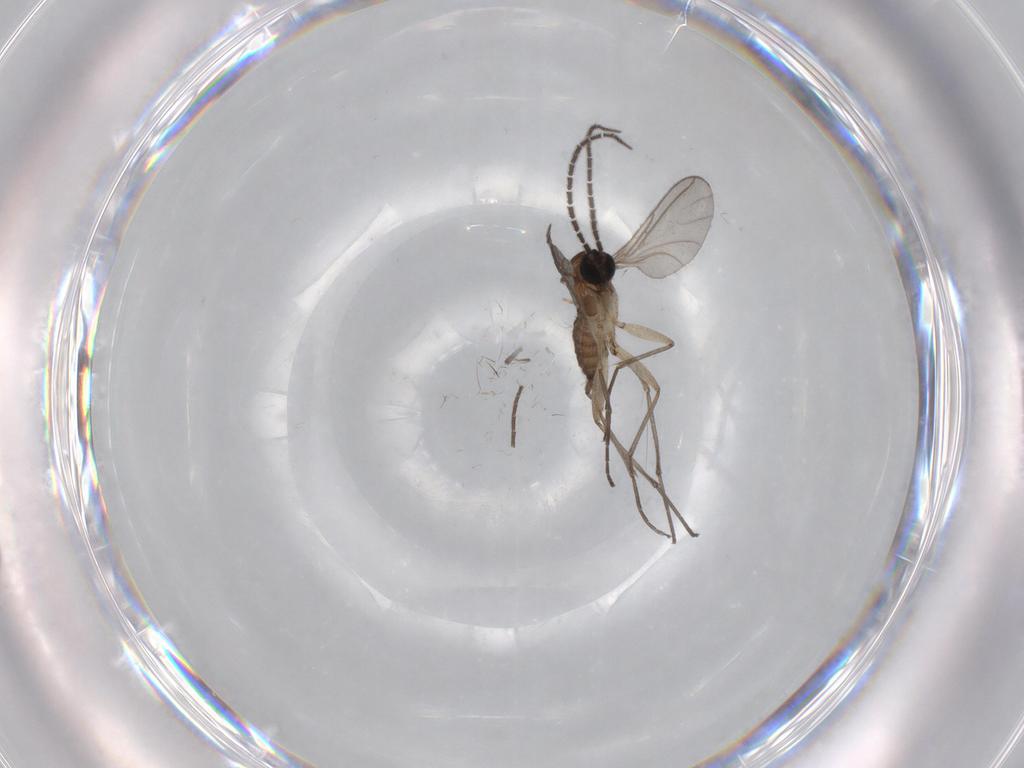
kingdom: Animalia
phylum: Arthropoda
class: Insecta
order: Diptera
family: Sciaridae
